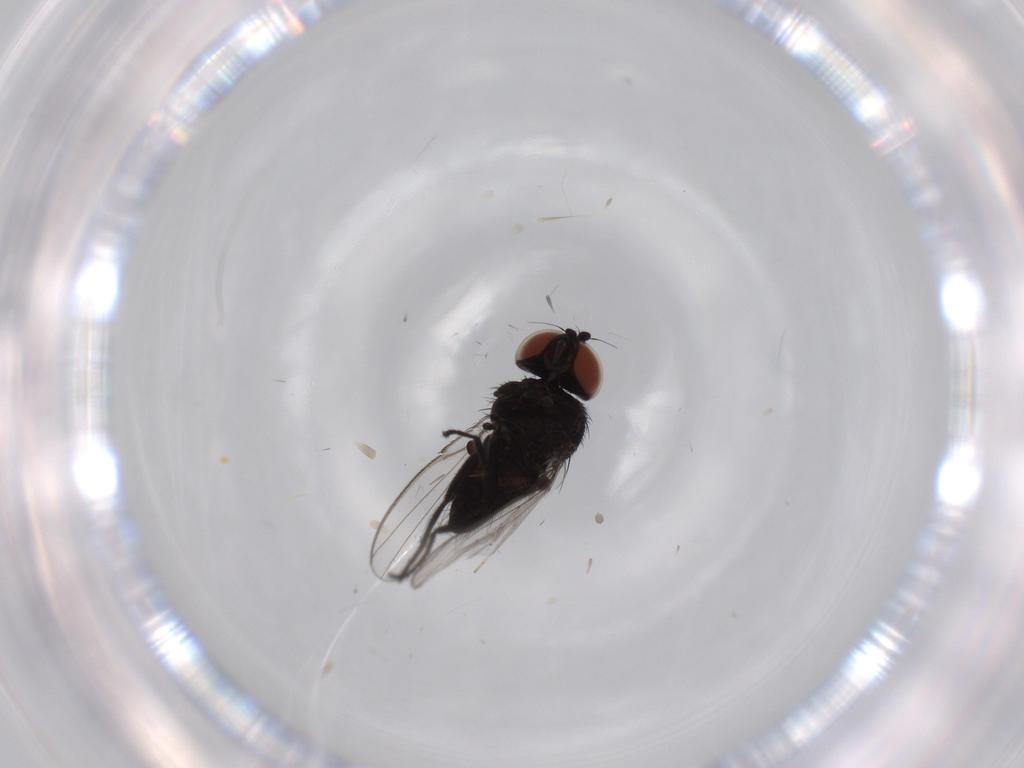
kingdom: Animalia
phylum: Arthropoda
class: Insecta
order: Diptera
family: Milichiidae
